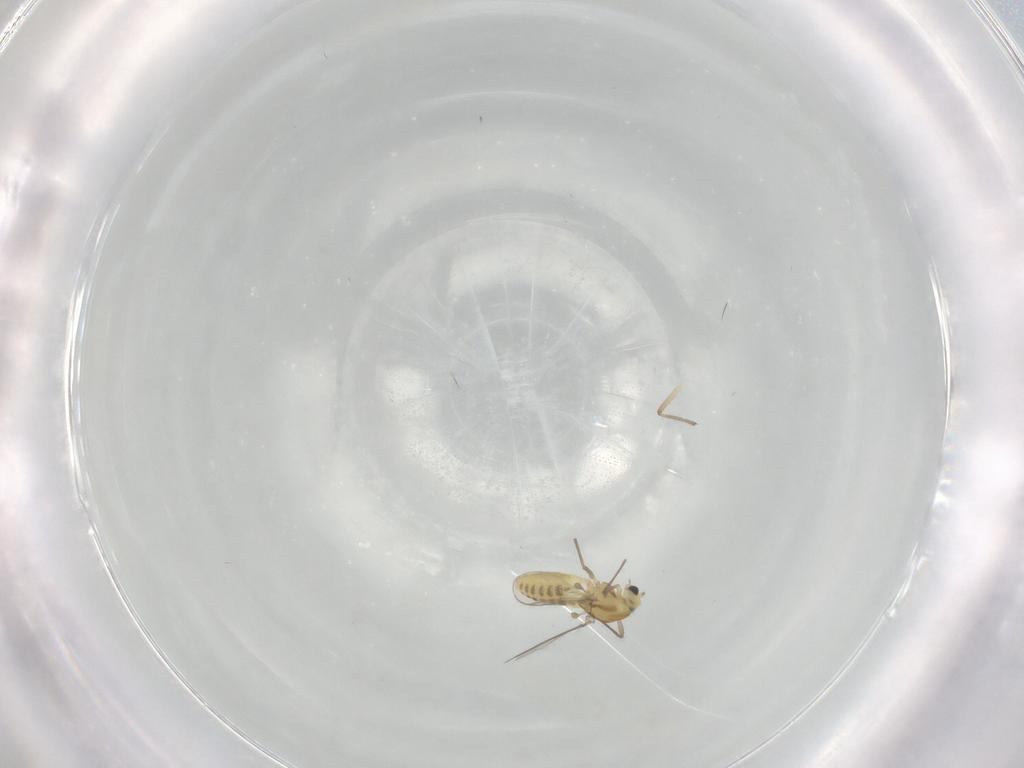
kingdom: Animalia
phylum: Arthropoda
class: Insecta
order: Diptera
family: Chironomidae
